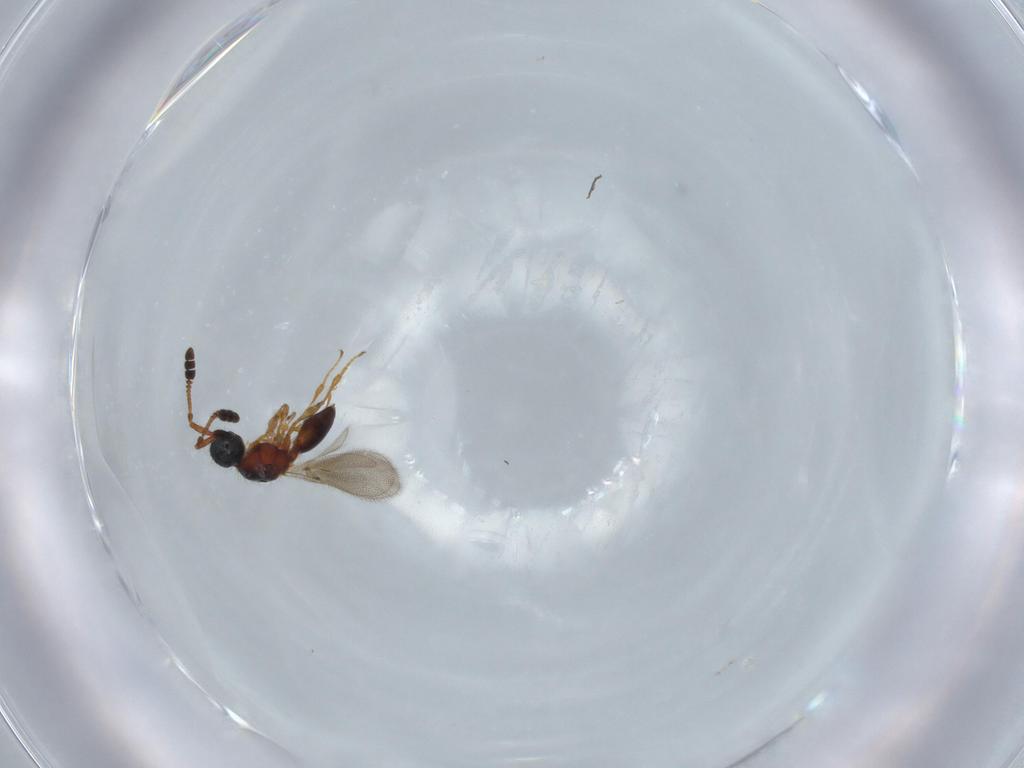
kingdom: Animalia
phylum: Arthropoda
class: Insecta
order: Hymenoptera
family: Diapriidae
